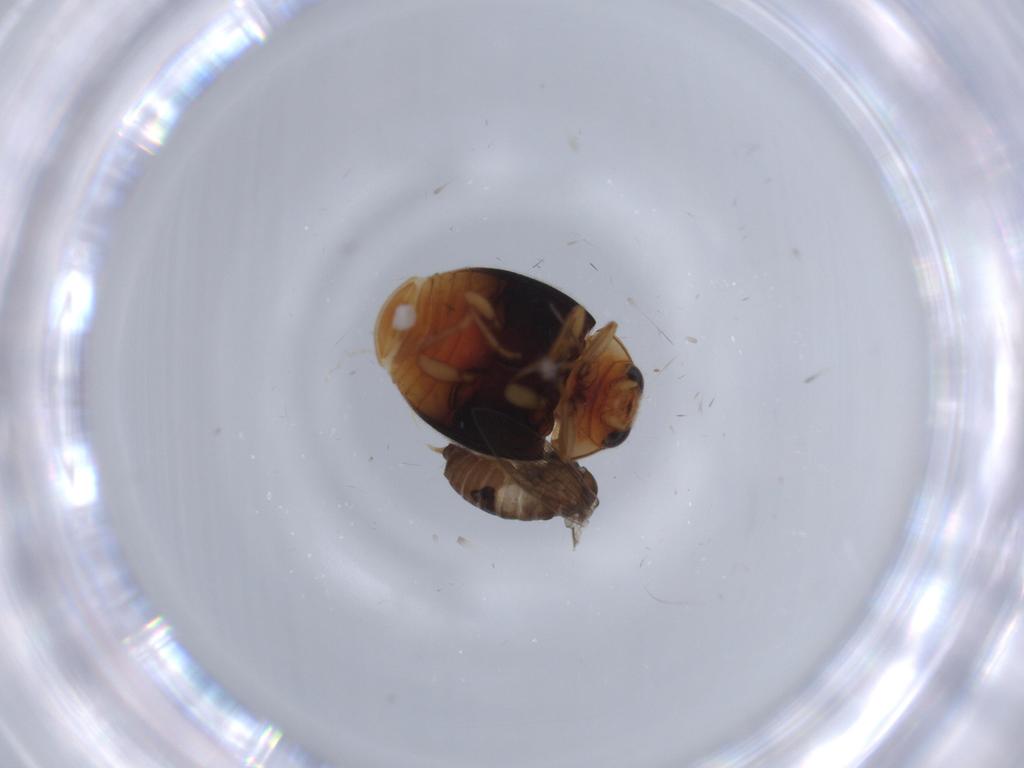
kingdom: Animalia
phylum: Arthropoda
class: Insecta
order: Diptera
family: Psychodidae
